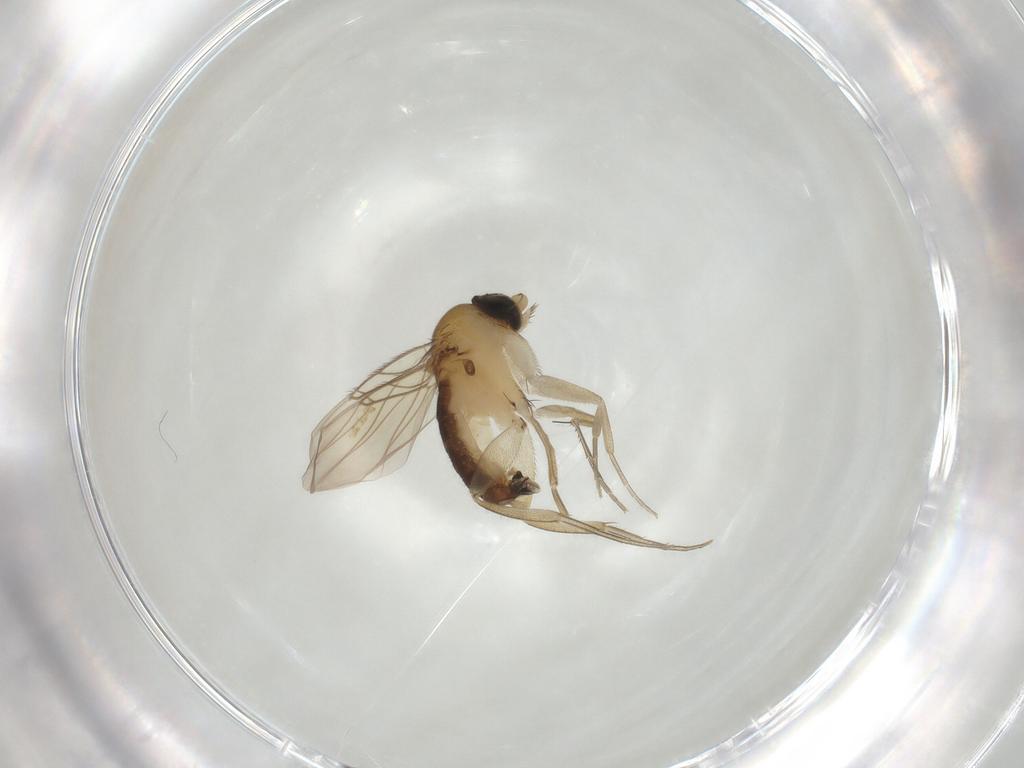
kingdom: Animalia
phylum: Arthropoda
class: Insecta
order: Diptera
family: Phoridae
